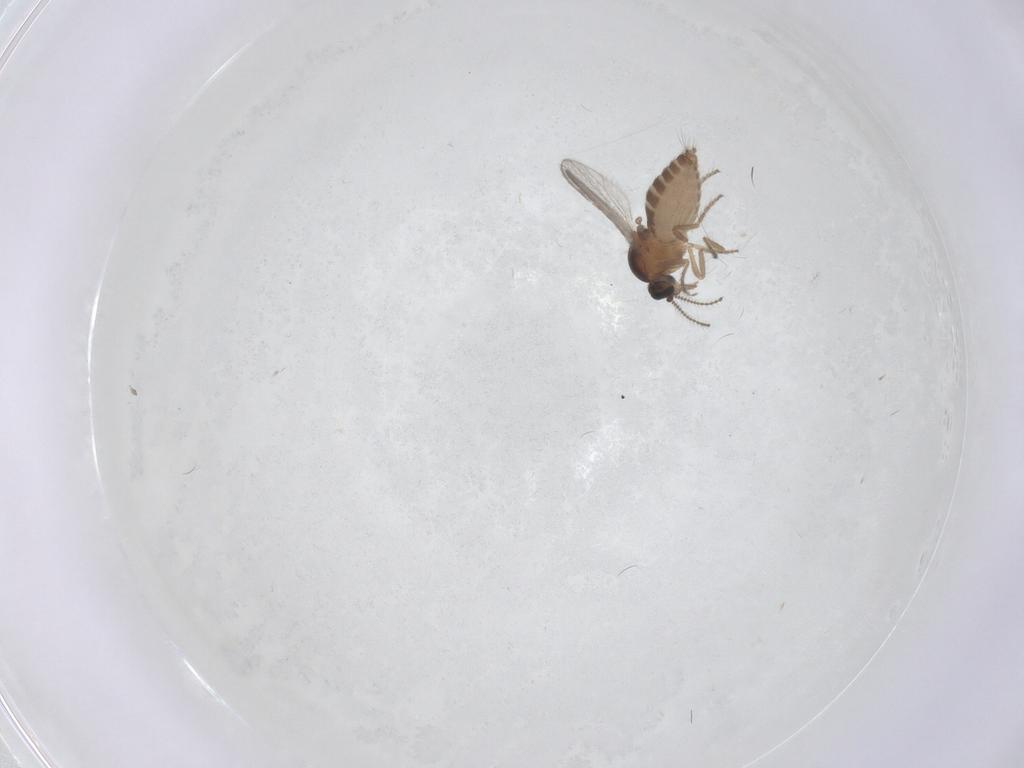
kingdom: Animalia
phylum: Arthropoda
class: Insecta
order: Diptera
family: Ceratopogonidae
